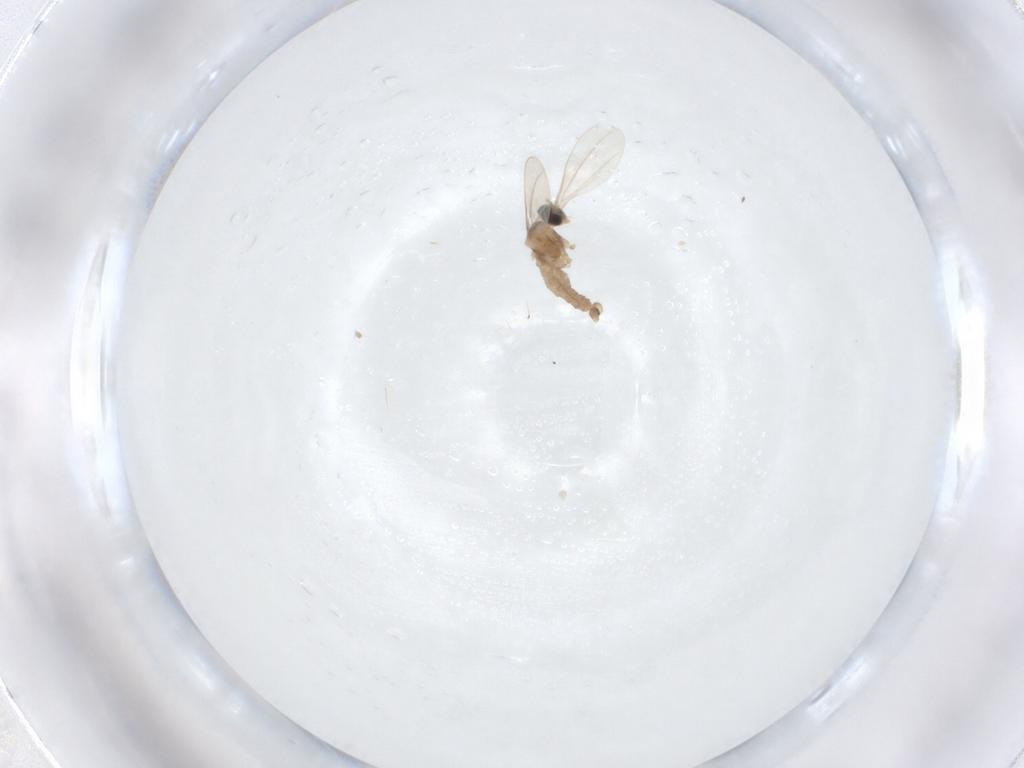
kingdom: Animalia
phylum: Arthropoda
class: Insecta
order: Diptera
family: Cecidomyiidae
